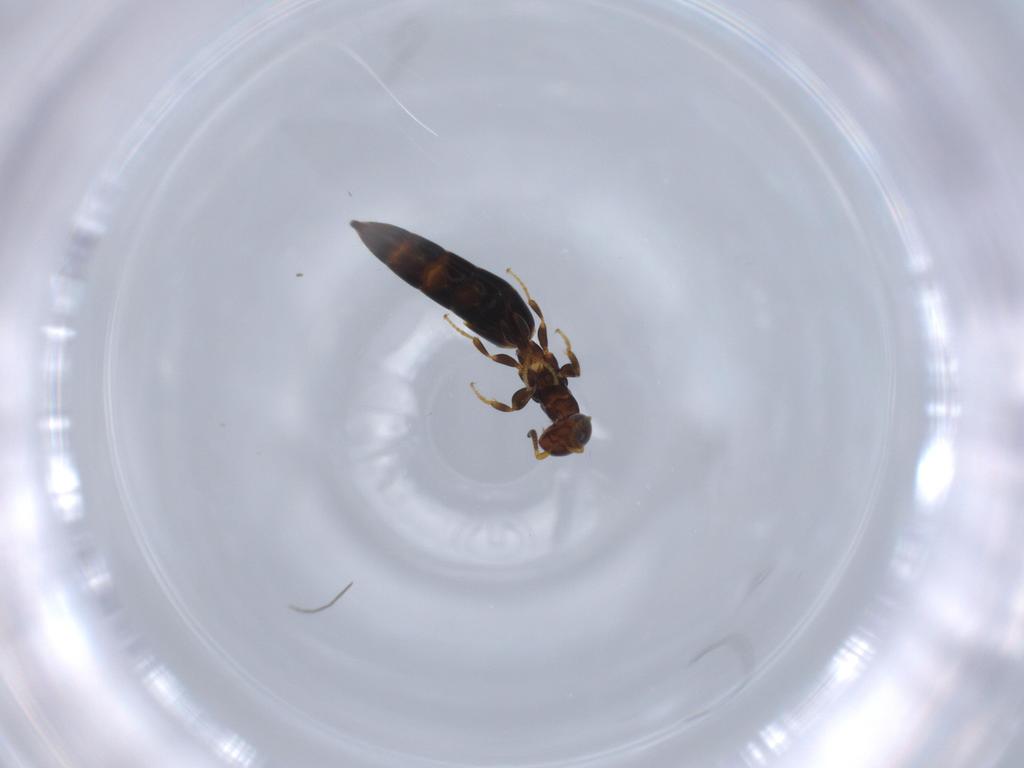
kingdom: Animalia
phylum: Arthropoda
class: Insecta
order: Hymenoptera
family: Bethylidae
